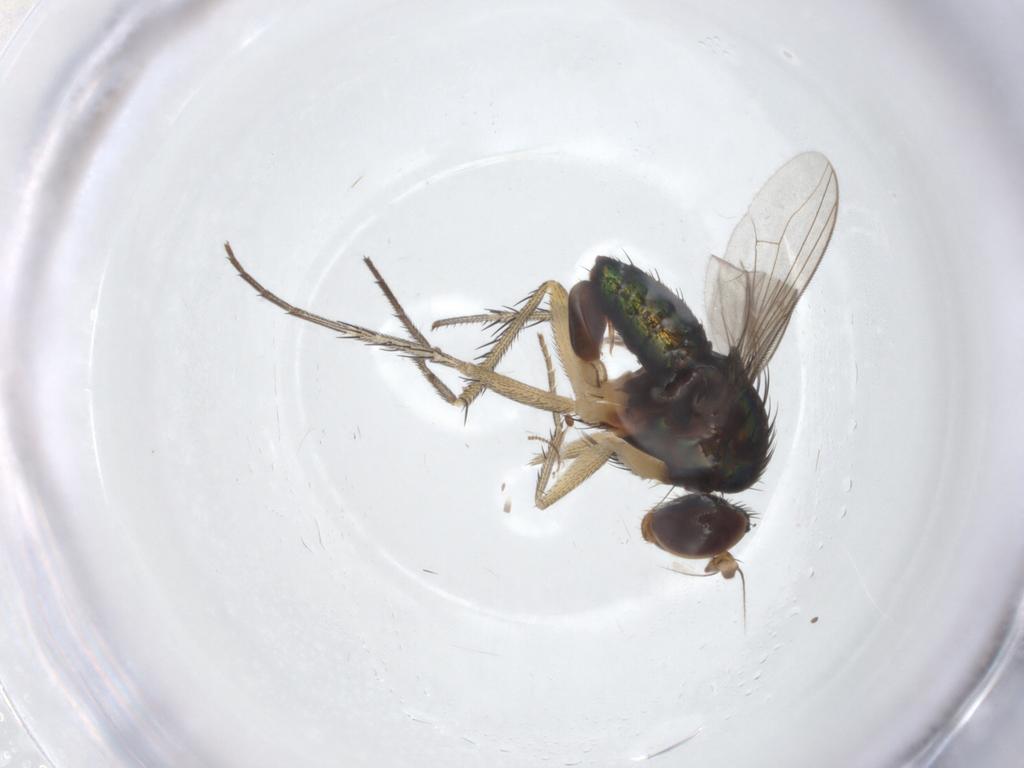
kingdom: Animalia
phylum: Arthropoda
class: Insecta
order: Diptera
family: Dolichopodidae
